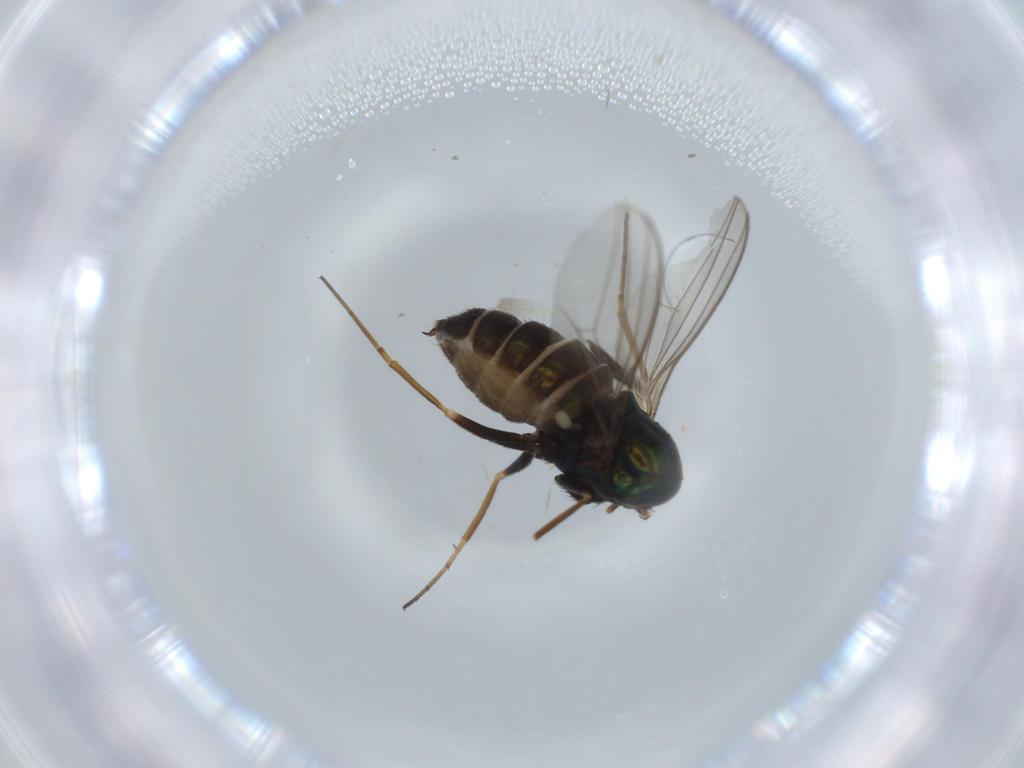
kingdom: Animalia
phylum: Arthropoda
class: Insecta
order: Diptera
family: Dolichopodidae
